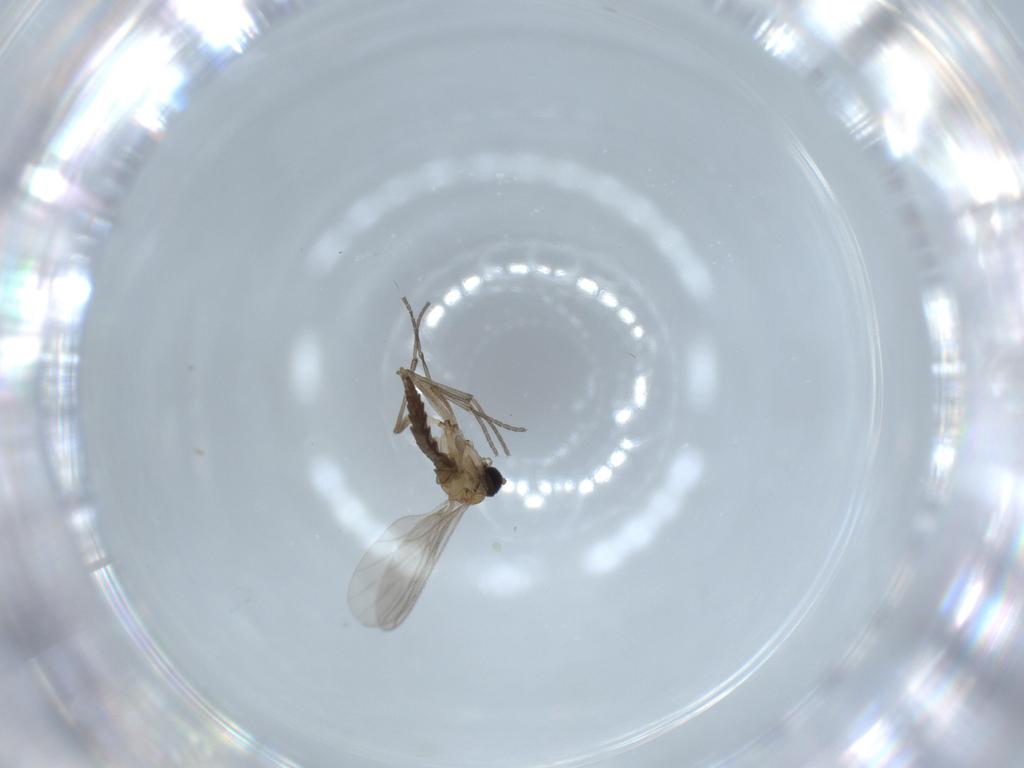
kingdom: Animalia
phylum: Arthropoda
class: Insecta
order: Diptera
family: Sciaridae
